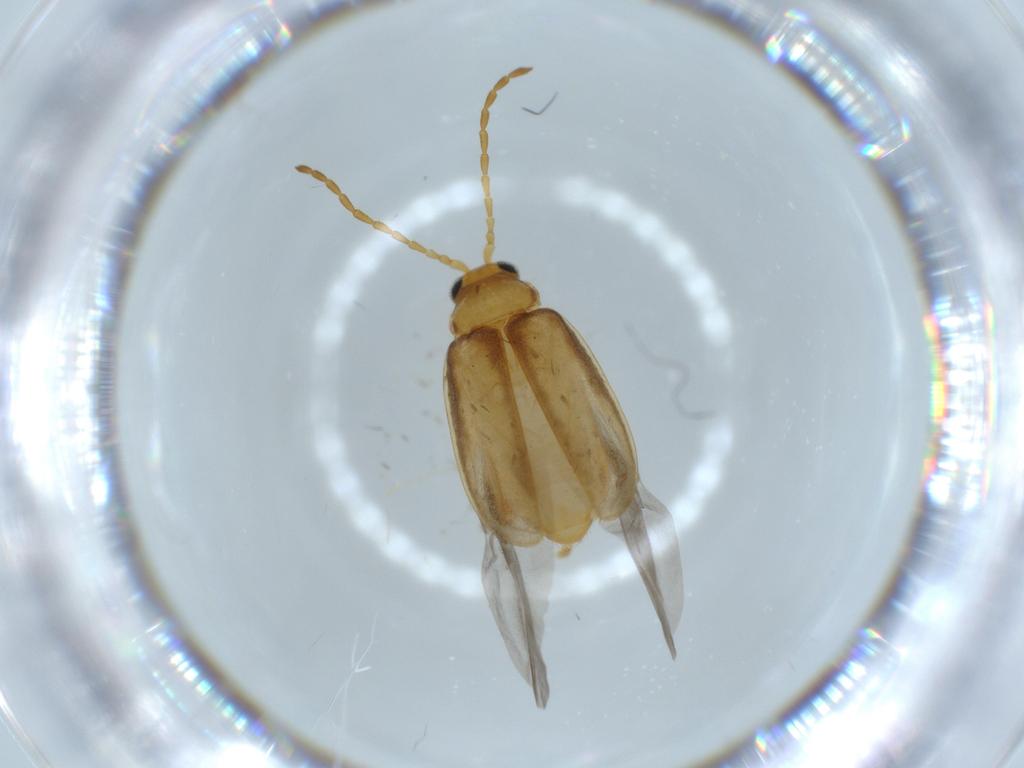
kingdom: Animalia
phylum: Arthropoda
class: Insecta
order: Coleoptera
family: Chrysomelidae
